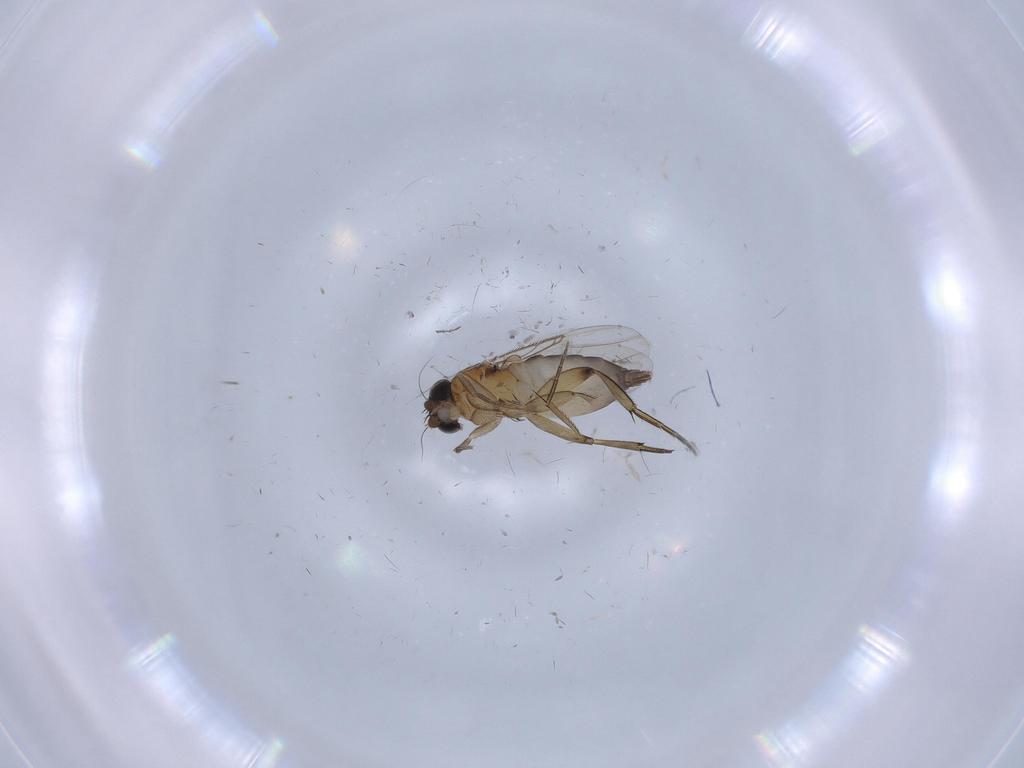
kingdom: Animalia
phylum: Arthropoda
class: Insecta
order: Diptera
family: Phoridae
